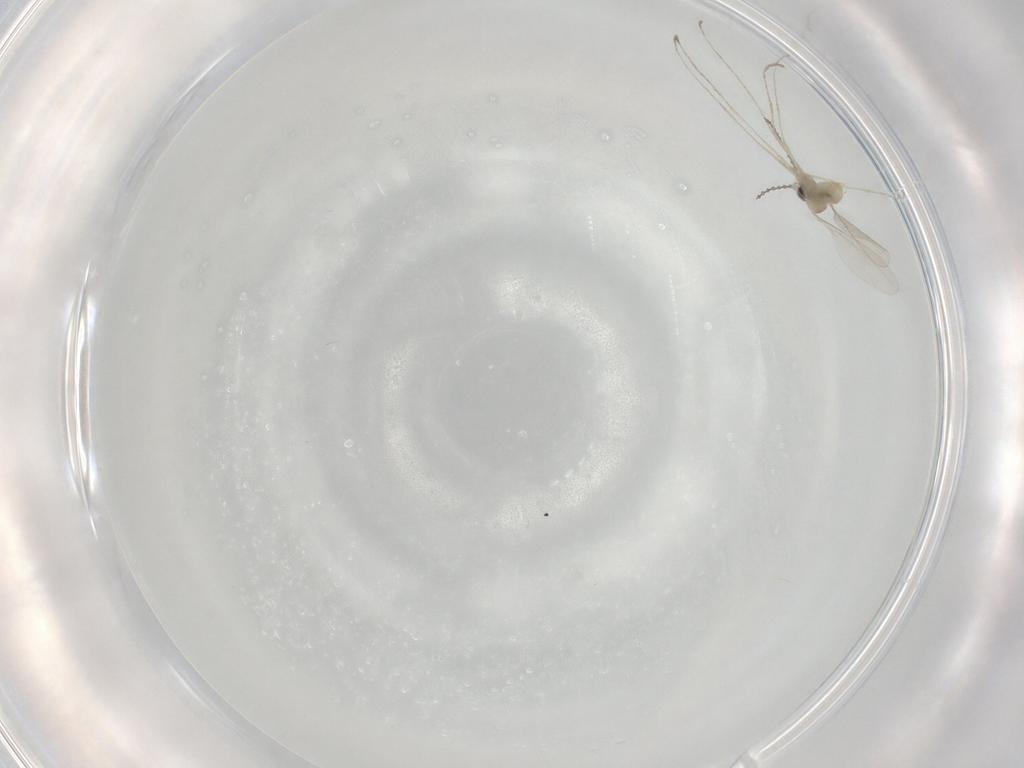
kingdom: Animalia
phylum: Arthropoda
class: Insecta
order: Diptera
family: Cecidomyiidae
